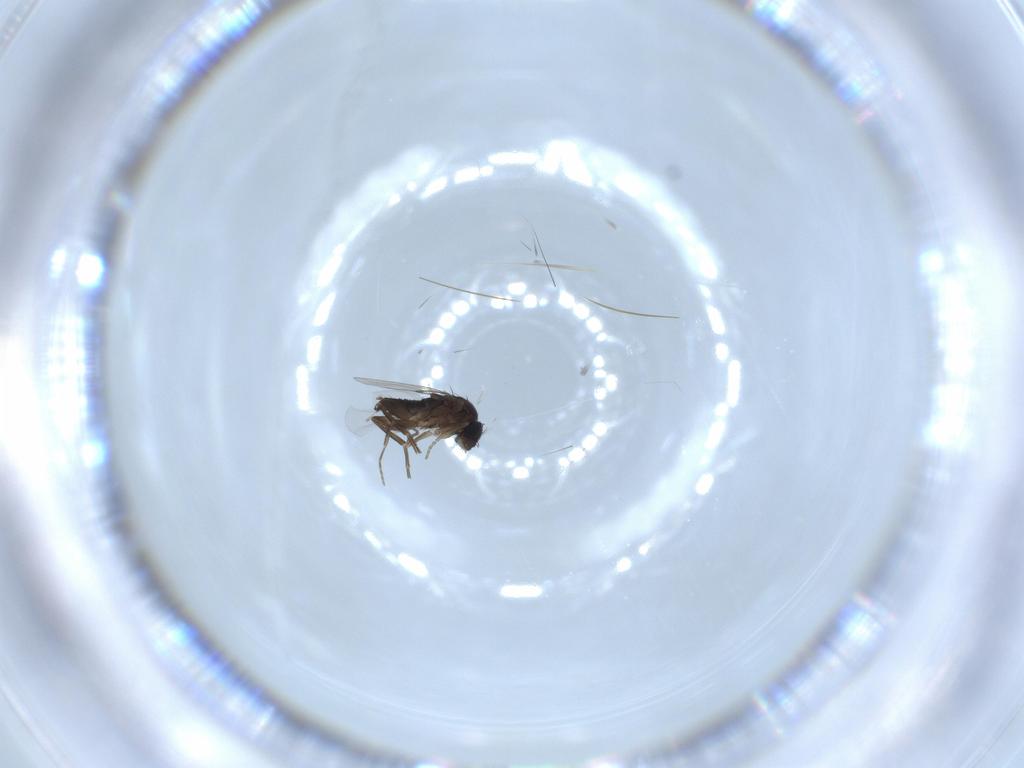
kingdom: Animalia
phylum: Arthropoda
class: Insecta
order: Diptera
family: Phoridae
